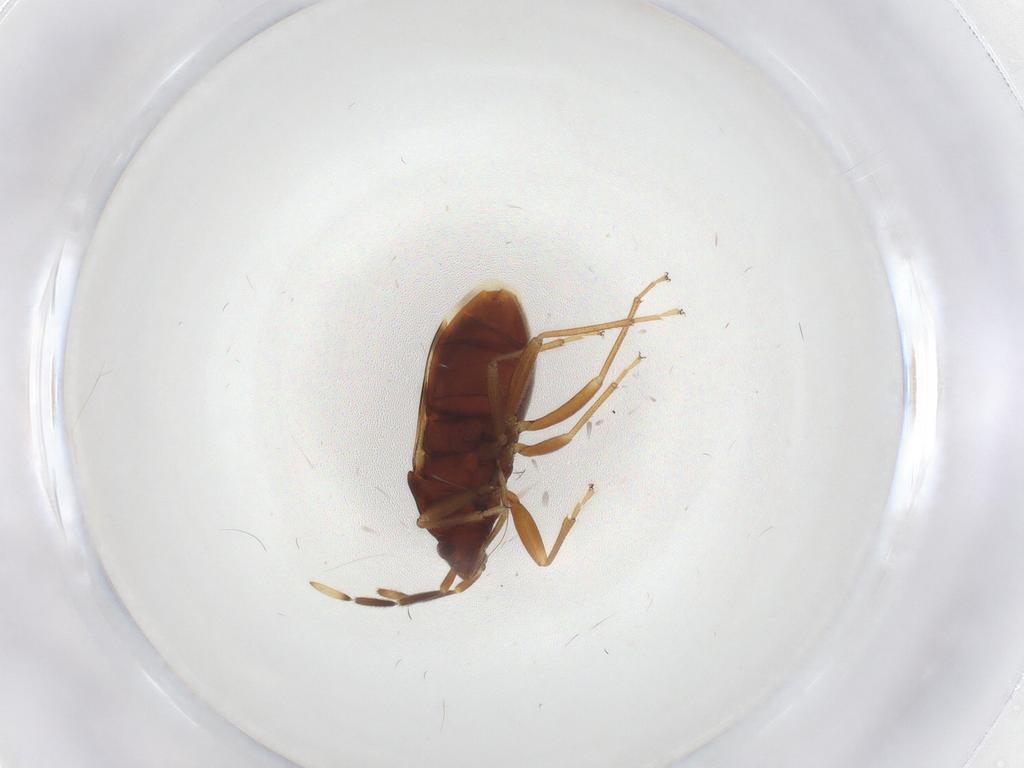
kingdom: Animalia
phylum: Arthropoda
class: Insecta
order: Hemiptera
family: Rhyparochromidae
